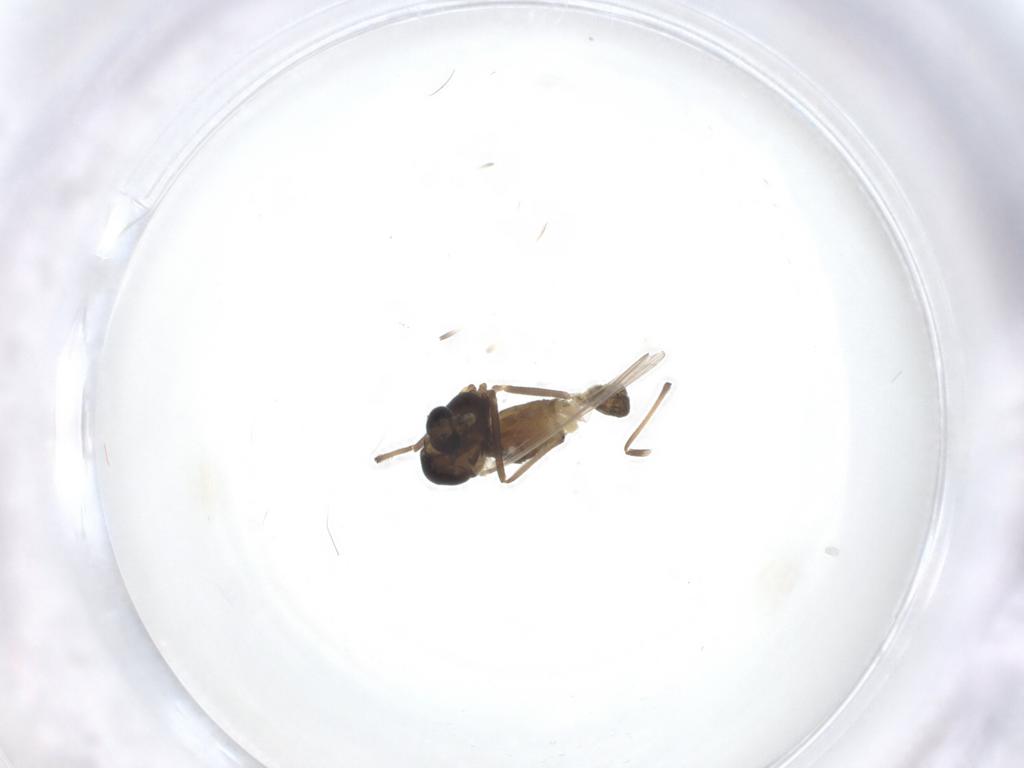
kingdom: Animalia
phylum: Arthropoda
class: Insecta
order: Diptera
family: Chironomidae
